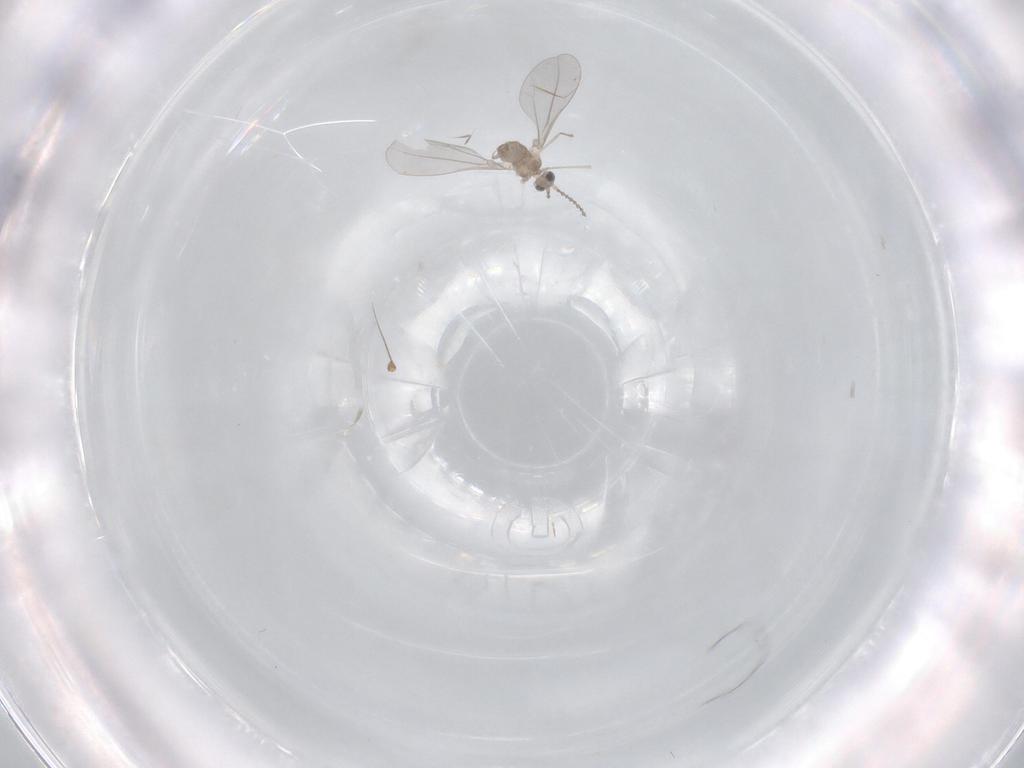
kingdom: Animalia
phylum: Arthropoda
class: Insecta
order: Diptera
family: Hybotidae
